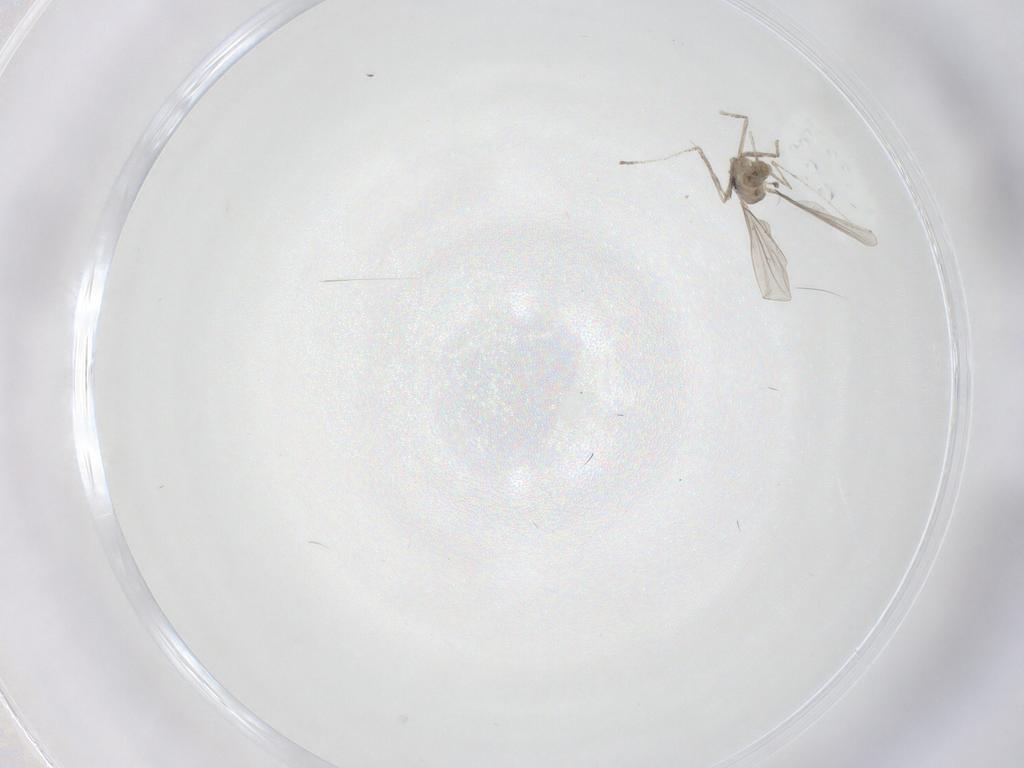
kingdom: Animalia
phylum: Arthropoda
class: Insecta
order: Diptera
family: Cecidomyiidae
